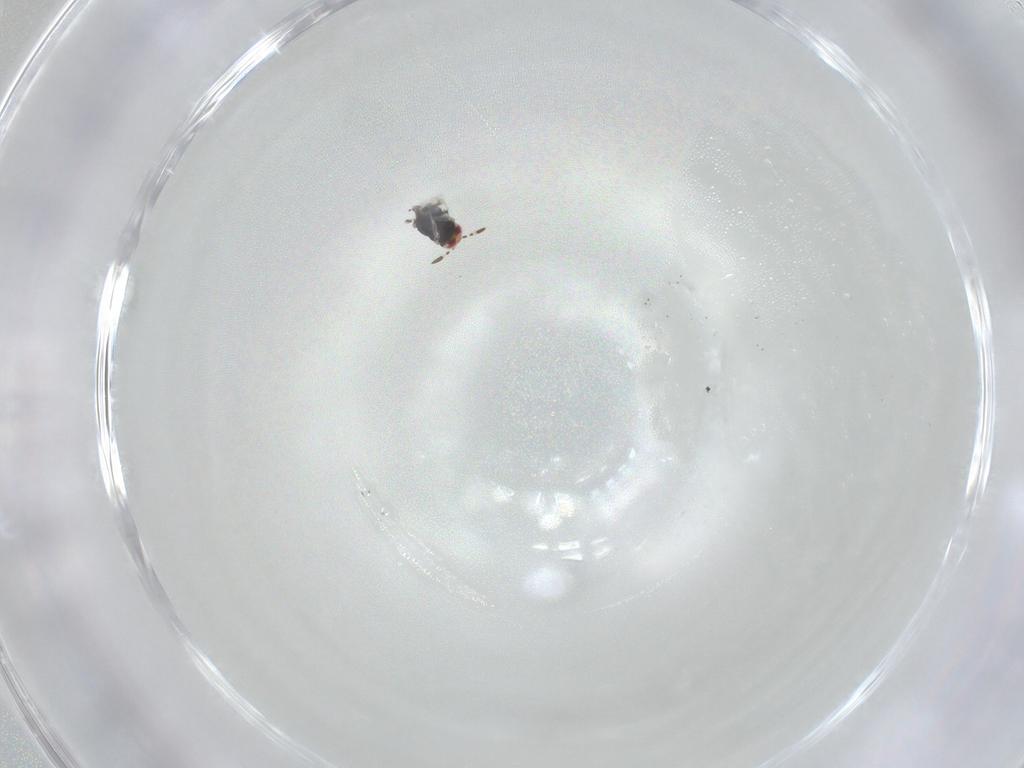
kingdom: Animalia
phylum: Arthropoda
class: Insecta
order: Hymenoptera
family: Azotidae
